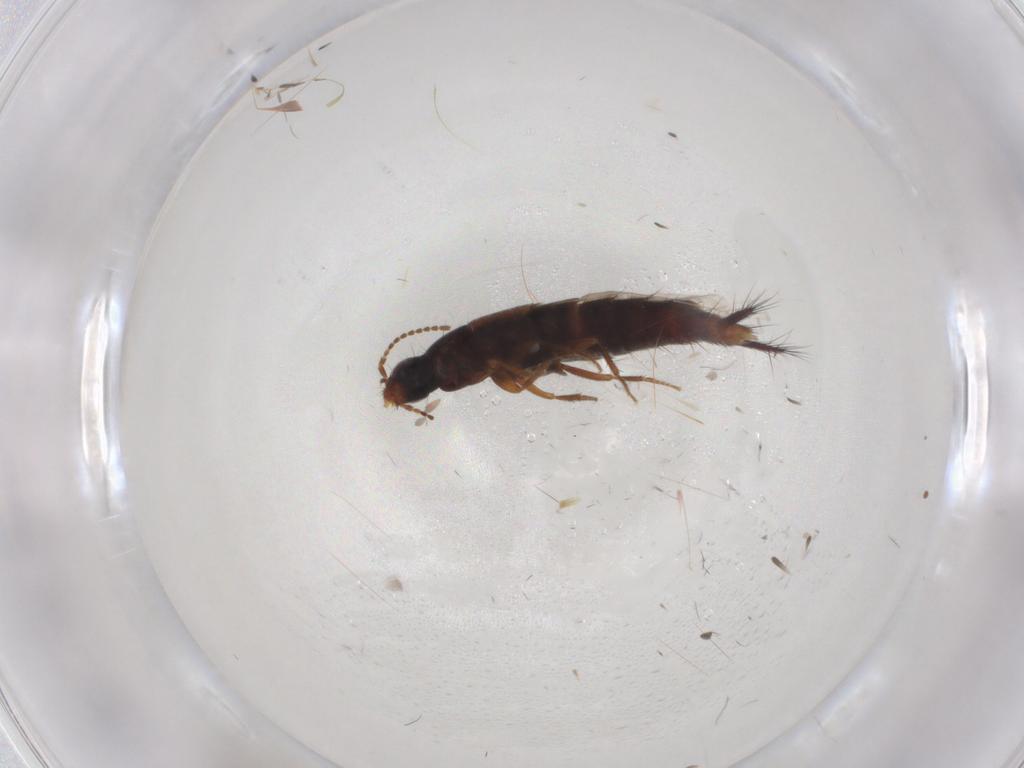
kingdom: Animalia
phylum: Arthropoda
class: Insecta
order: Coleoptera
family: Staphylinidae
